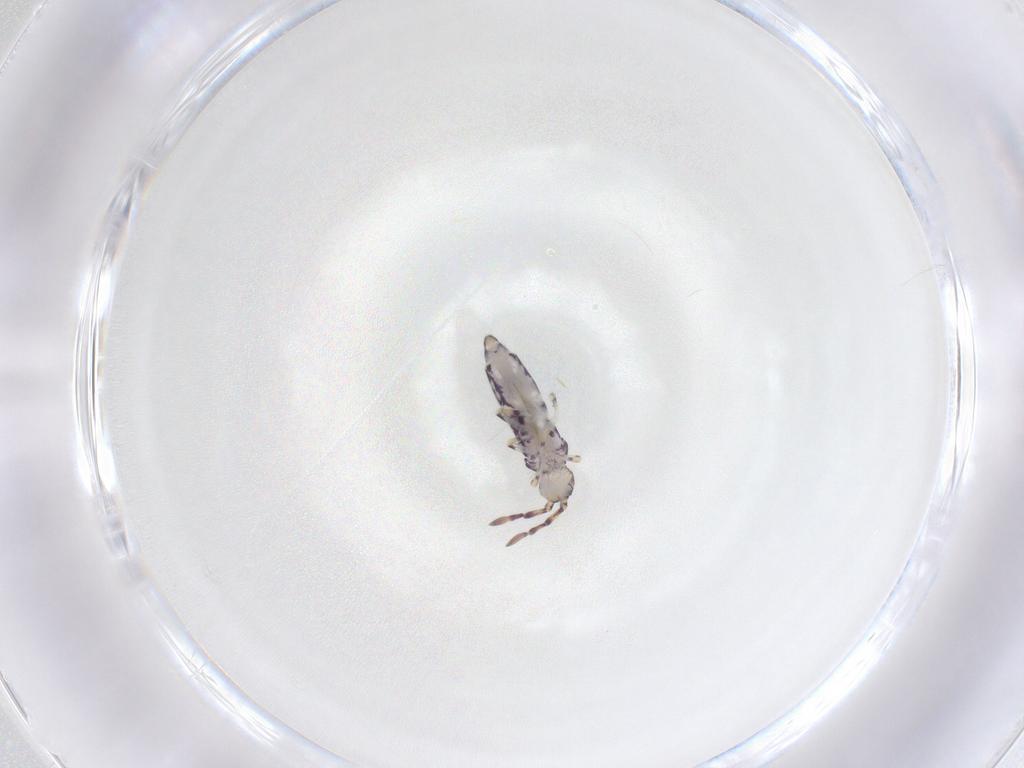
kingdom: Animalia
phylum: Arthropoda
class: Collembola
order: Entomobryomorpha
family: Entomobryidae
